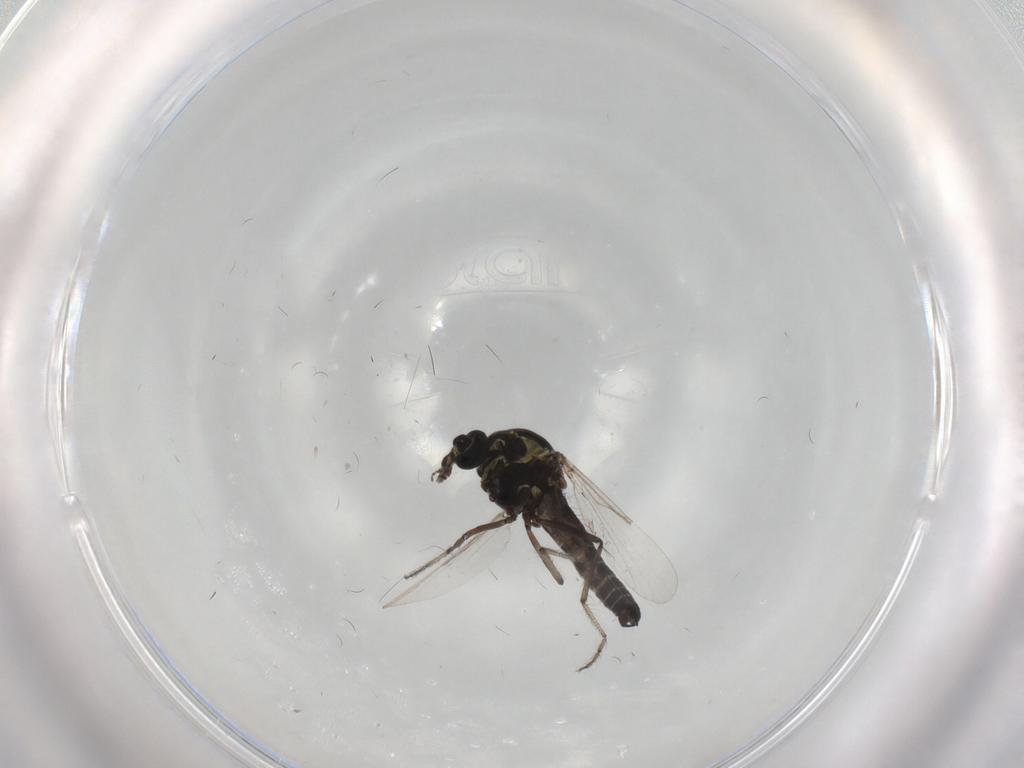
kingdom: Animalia
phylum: Arthropoda
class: Insecta
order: Diptera
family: Chironomidae
